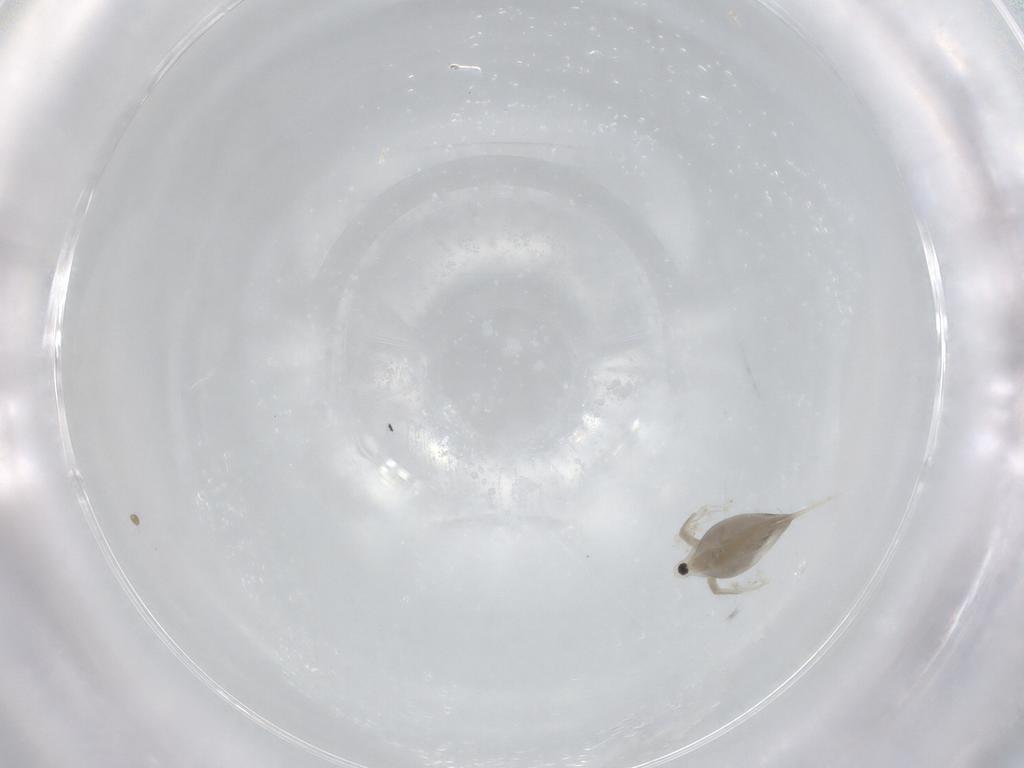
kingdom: Animalia
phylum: Arthropoda
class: Branchiopoda
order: Diplostraca
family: Daphniidae
